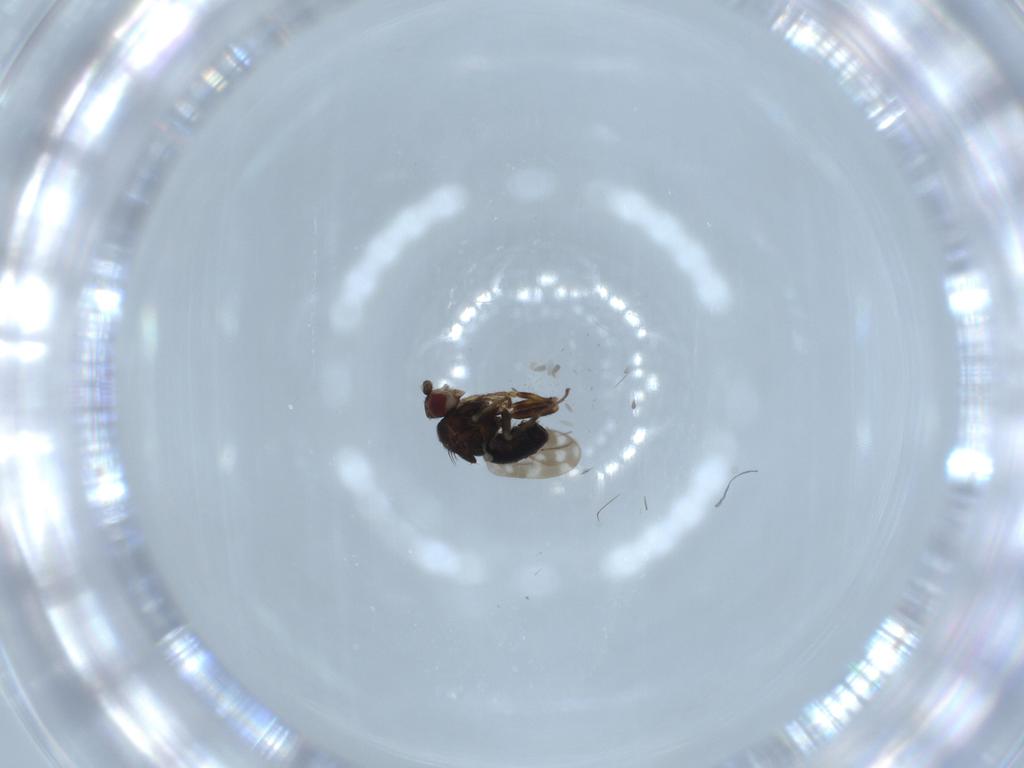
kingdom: Animalia
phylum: Arthropoda
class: Insecta
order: Diptera
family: Sphaeroceridae
